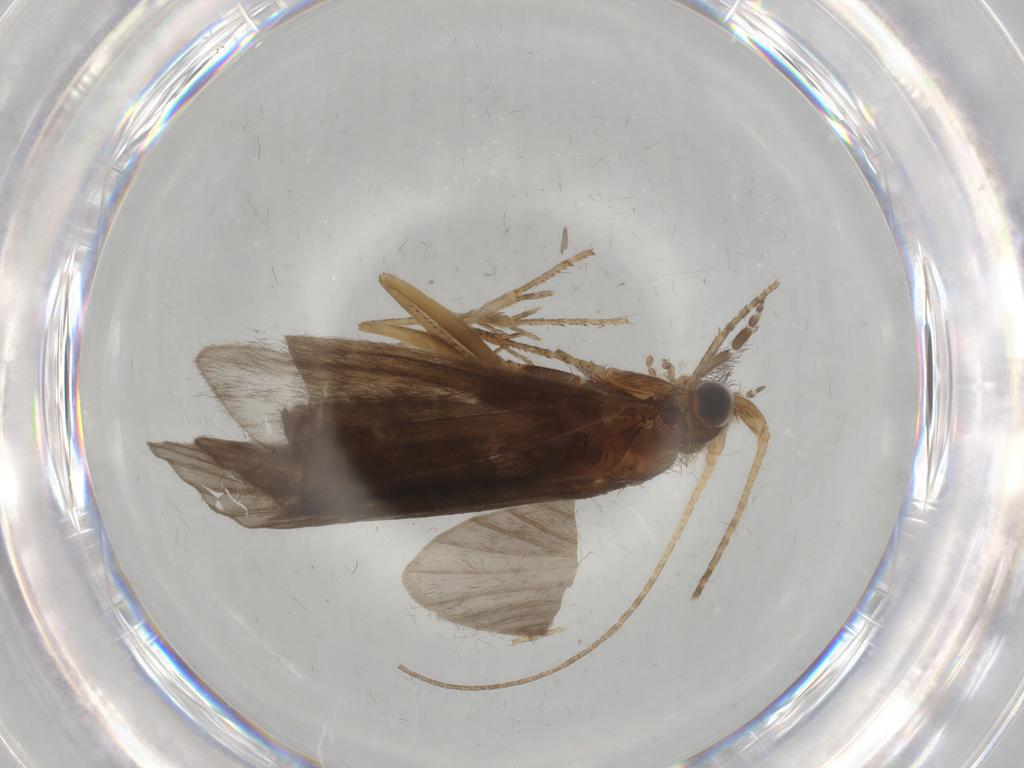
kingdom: Animalia
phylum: Arthropoda
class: Insecta
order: Trichoptera
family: Helicopsychidae
